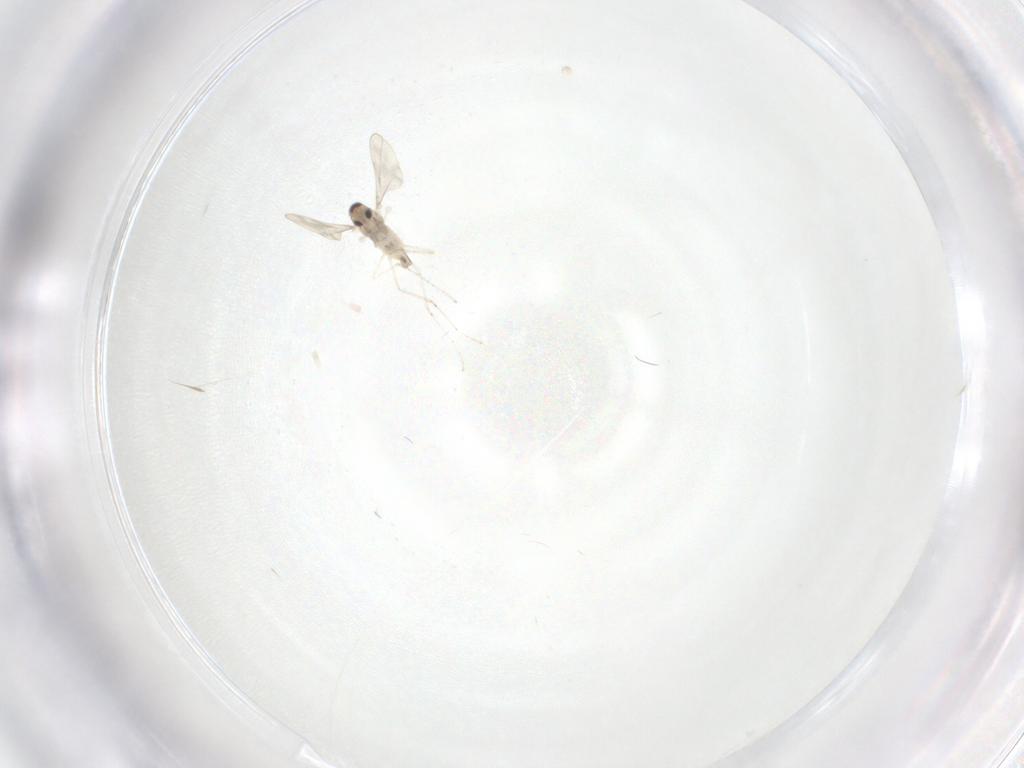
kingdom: Animalia
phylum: Arthropoda
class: Insecta
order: Diptera
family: Cecidomyiidae
